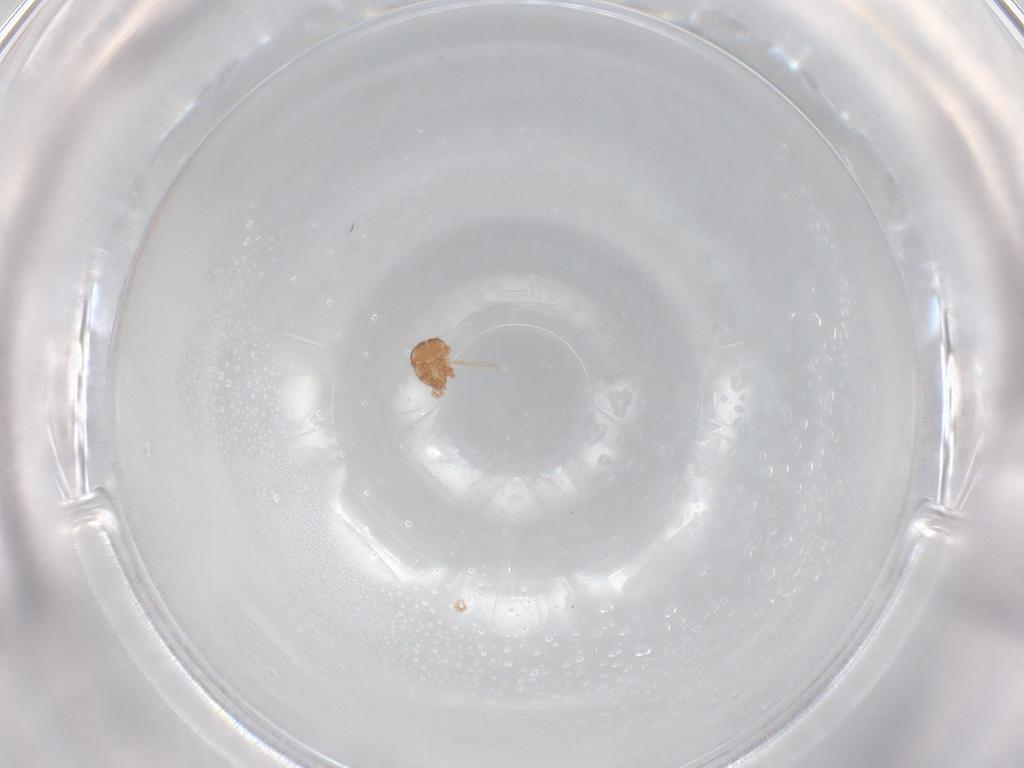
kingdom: Animalia
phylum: Arthropoda
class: Arachnida
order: Mesostigmata
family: Zerconidae
